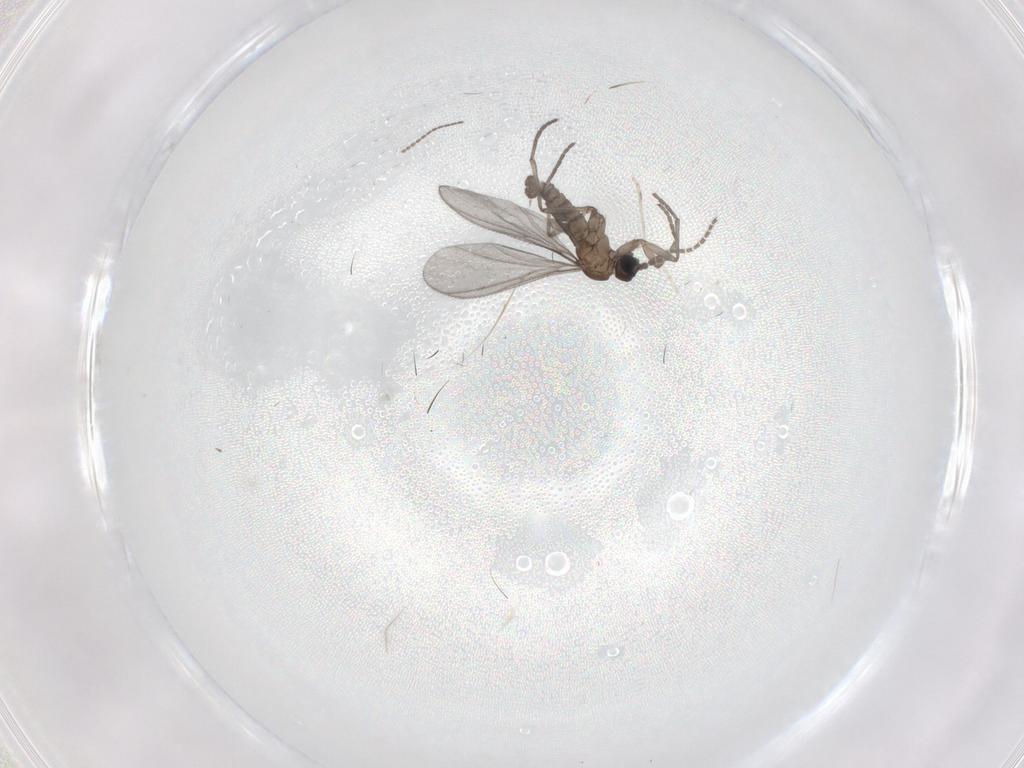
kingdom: Animalia
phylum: Arthropoda
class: Insecta
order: Diptera
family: Sciaridae
